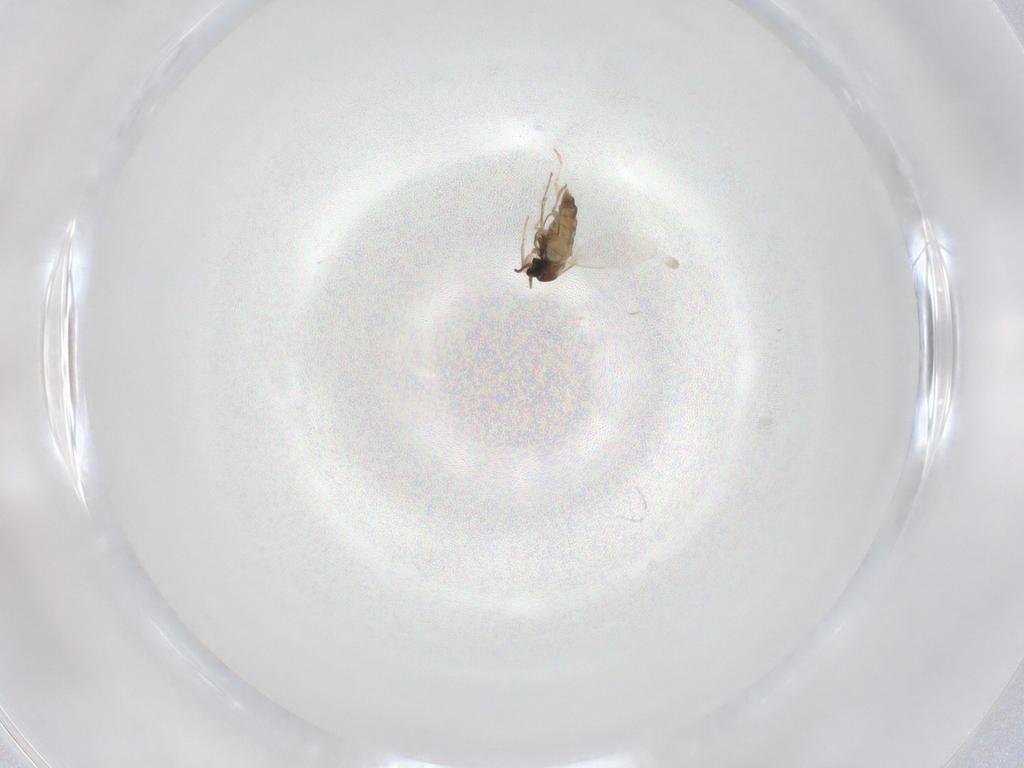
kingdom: Animalia
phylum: Arthropoda
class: Insecta
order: Diptera
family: Cecidomyiidae
